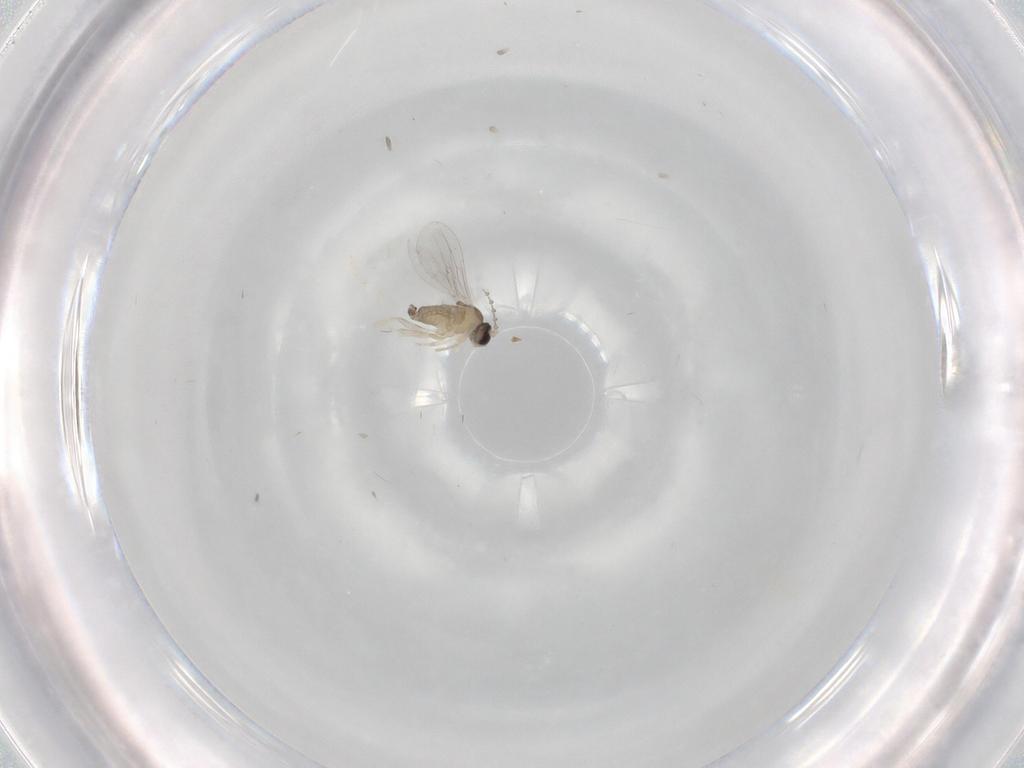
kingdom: Animalia
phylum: Arthropoda
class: Insecta
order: Diptera
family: Cecidomyiidae
